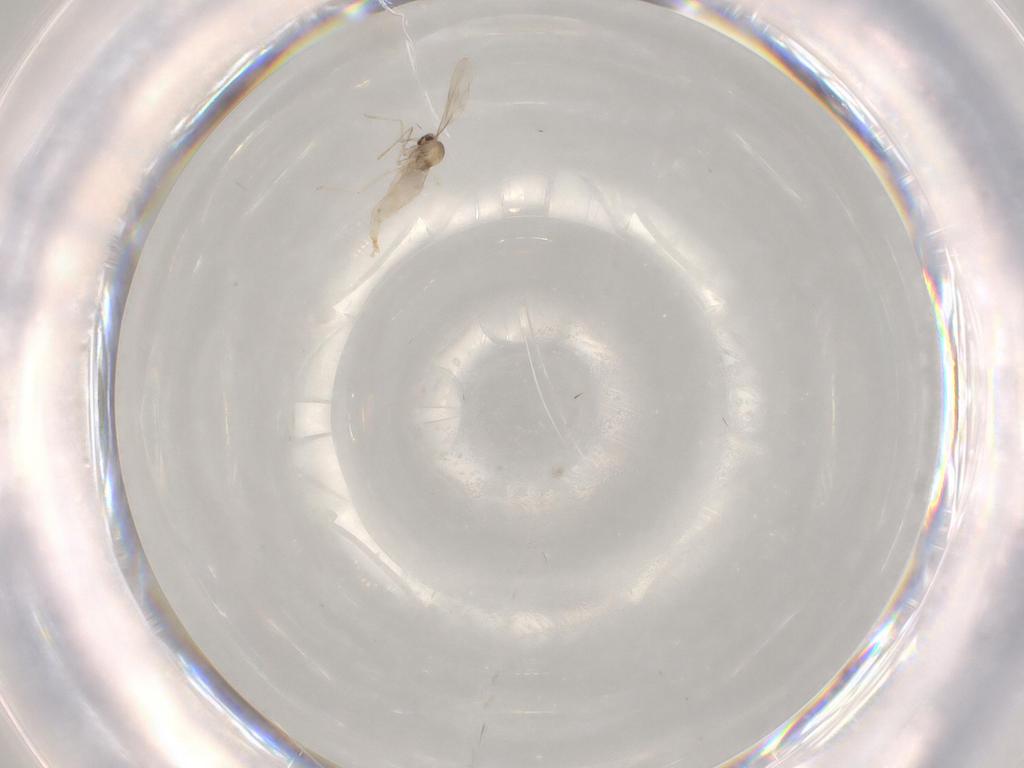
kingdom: Animalia
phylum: Arthropoda
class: Insecta
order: Diptera
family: Cecidomyiidae
